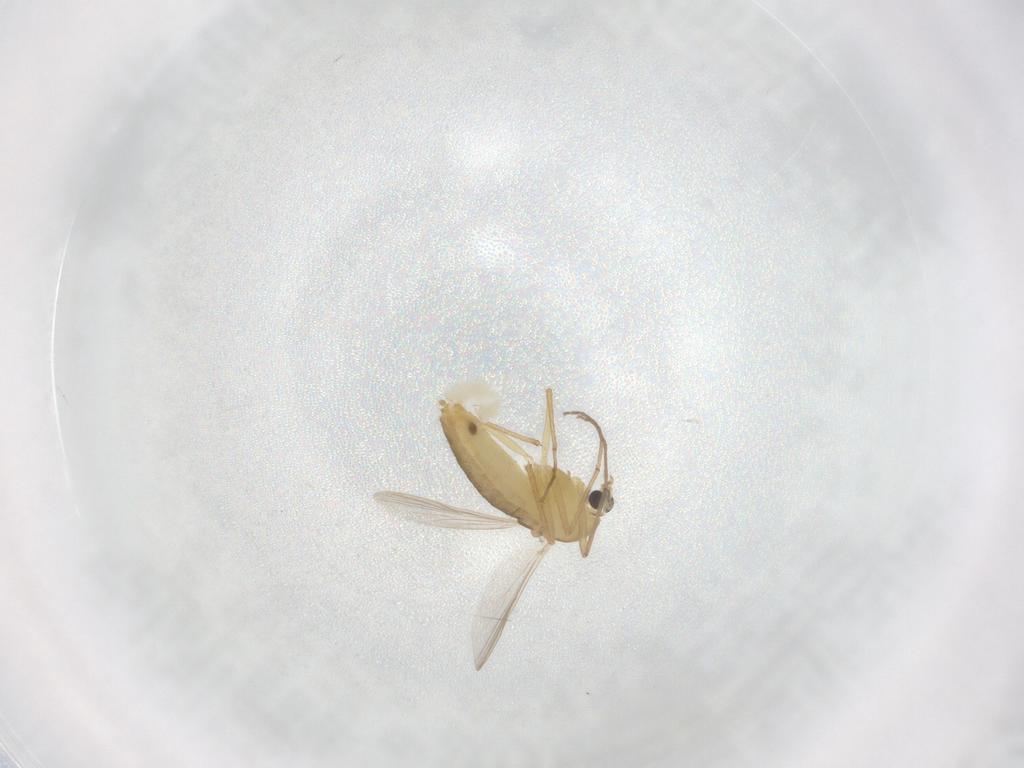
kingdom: Animalia
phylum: Arthropoda
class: Insecta
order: Diptera
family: Chironomidae
